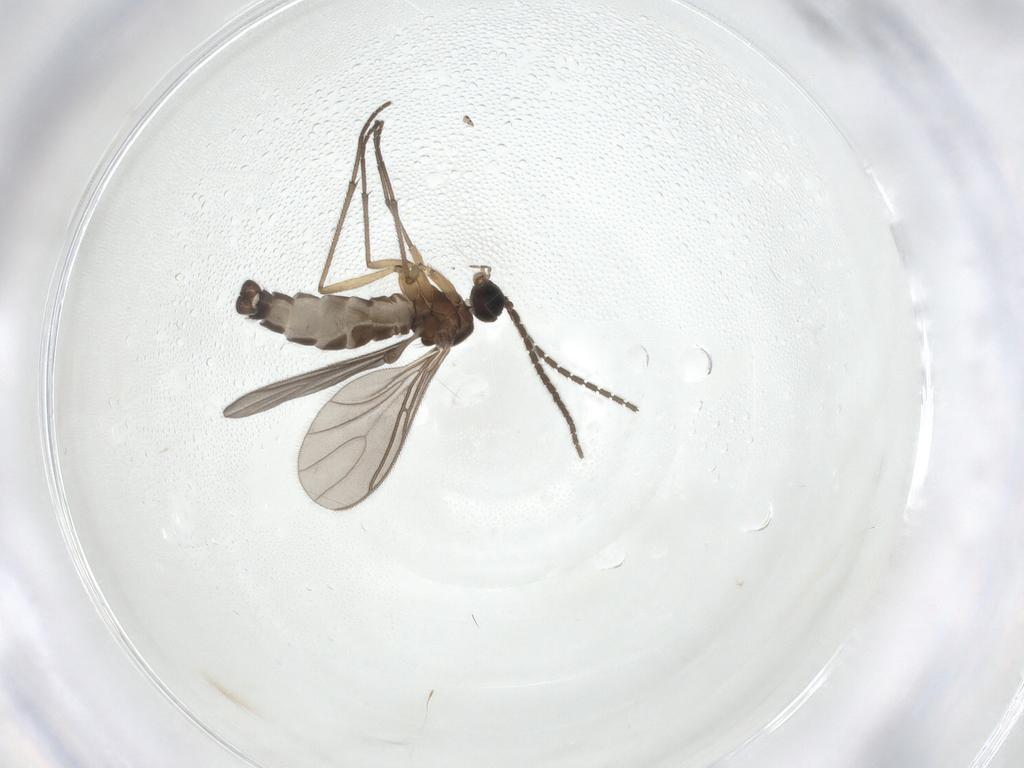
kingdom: Animalia
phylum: Arthropoda
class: Insecta
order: Diptera
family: Sciaridae
